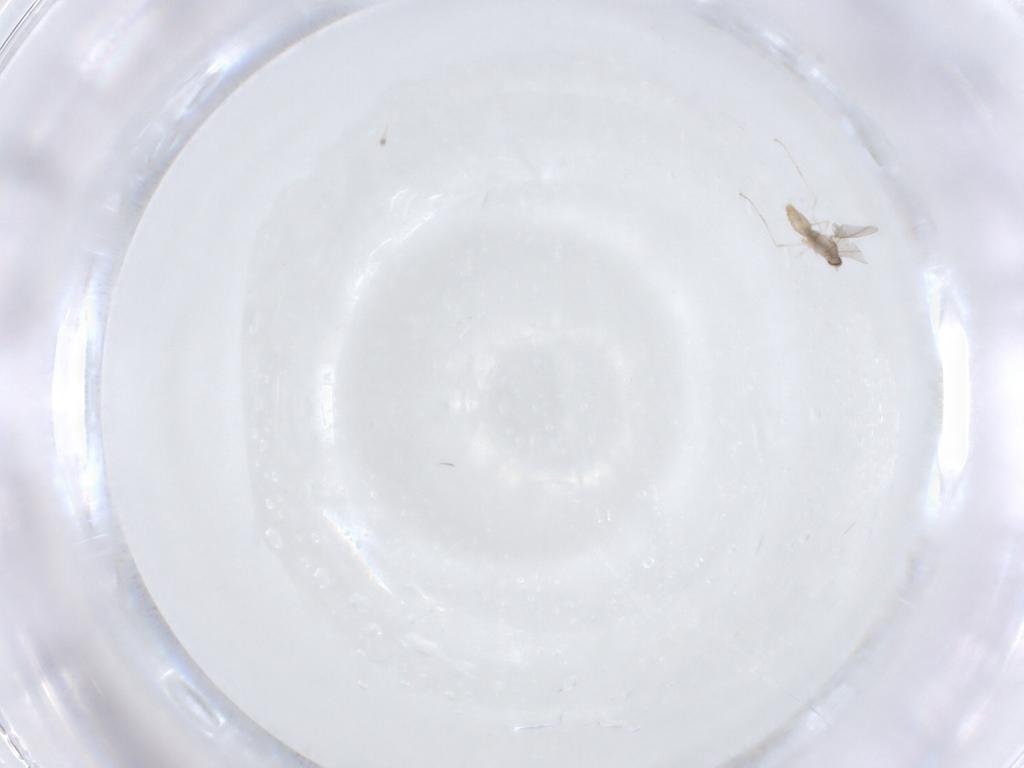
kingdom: Animalia
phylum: Arthropoda
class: Insecta
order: Diptera
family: Cecidomyiidae
